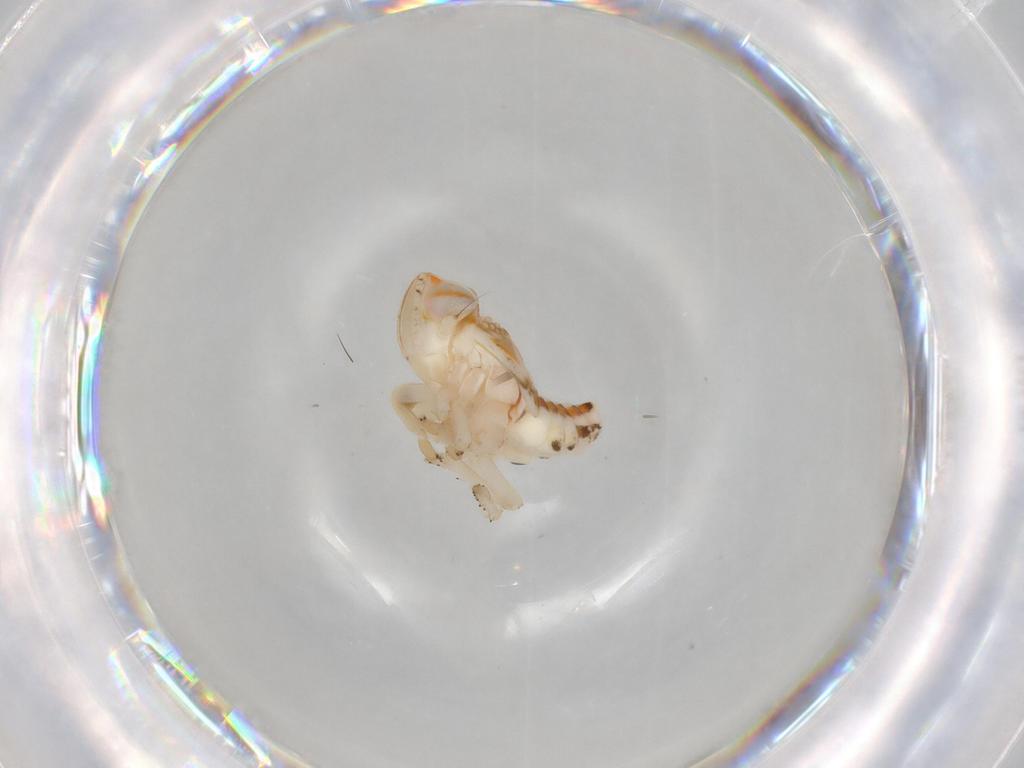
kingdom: Animalia
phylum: Arthropoda
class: Insecta
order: Hemiptera
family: Nogodinidae
